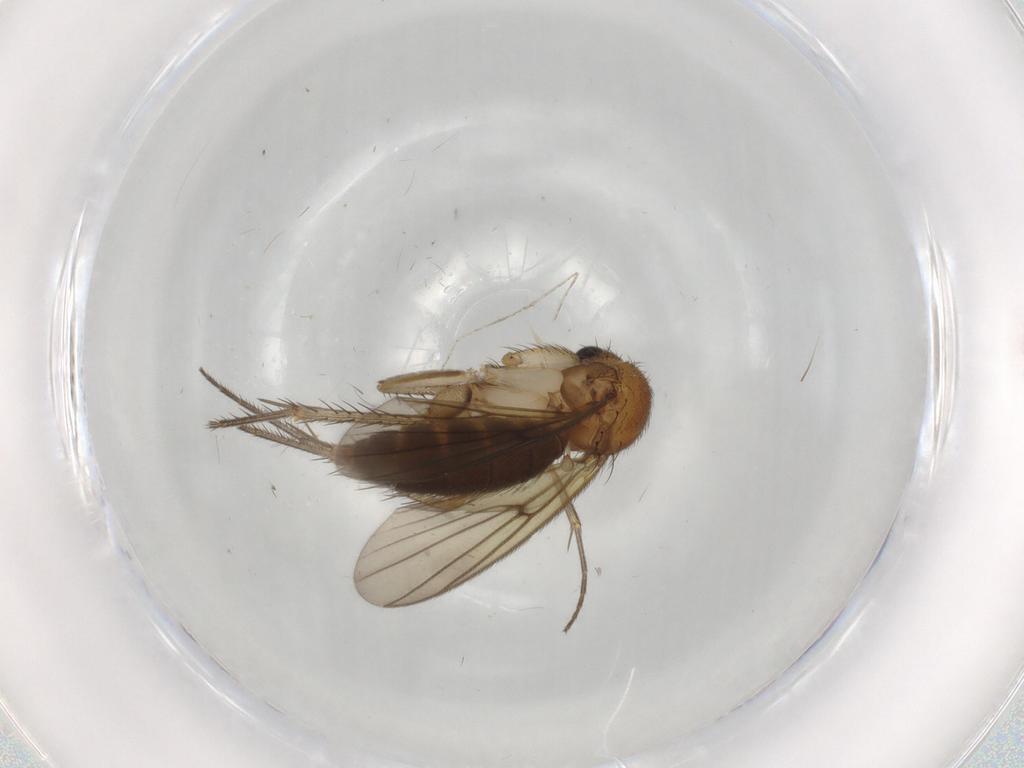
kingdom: Animalia
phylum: Arthropoda
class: Insecta
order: Diptera
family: Mycetophilidae
